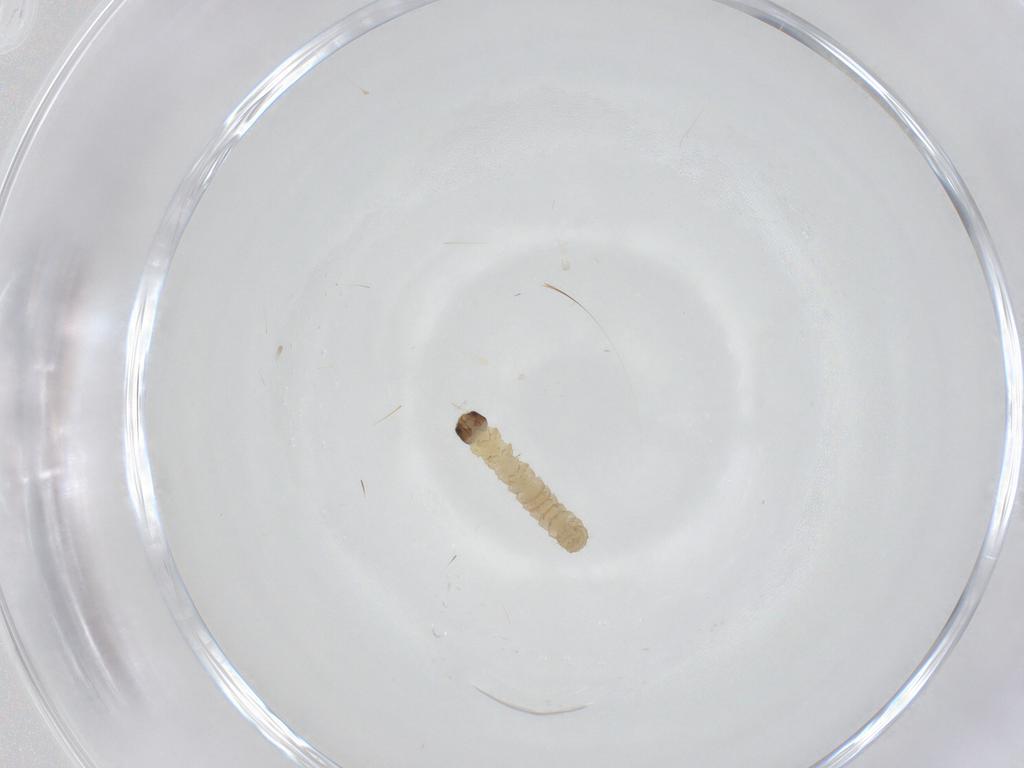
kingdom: Animalia
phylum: Arthropoda
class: Insecta
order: Lepidoptera
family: Tortricidae
